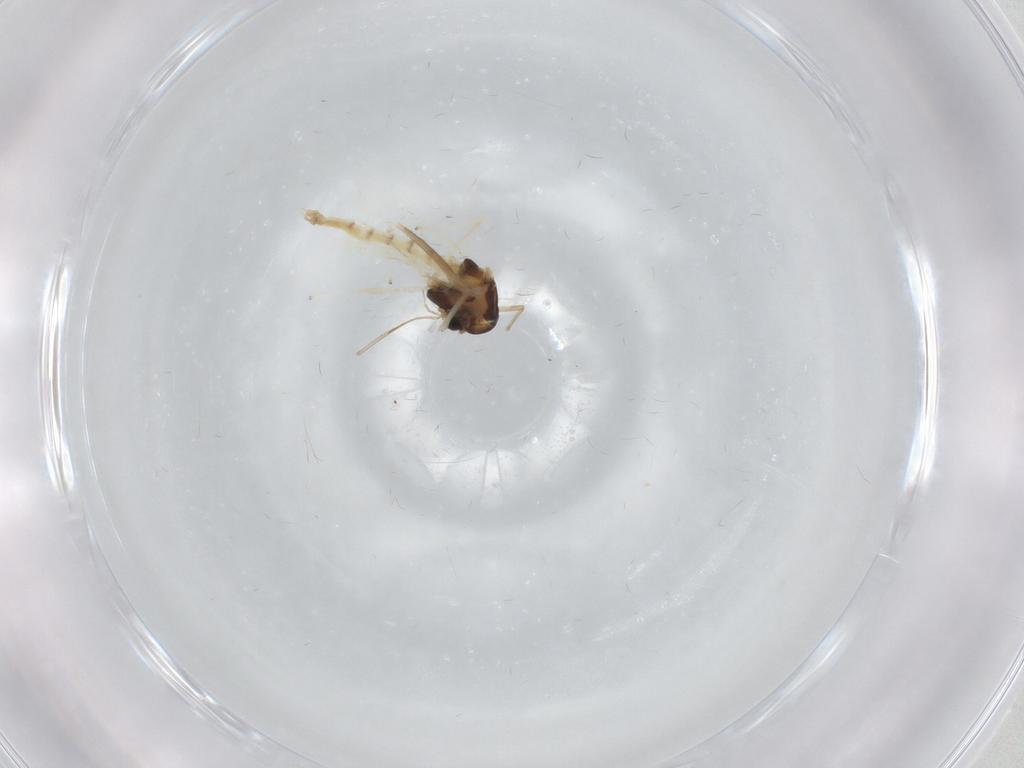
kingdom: Animalia
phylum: Arthropoda
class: Insecta
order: Diptera
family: Chironomidae
